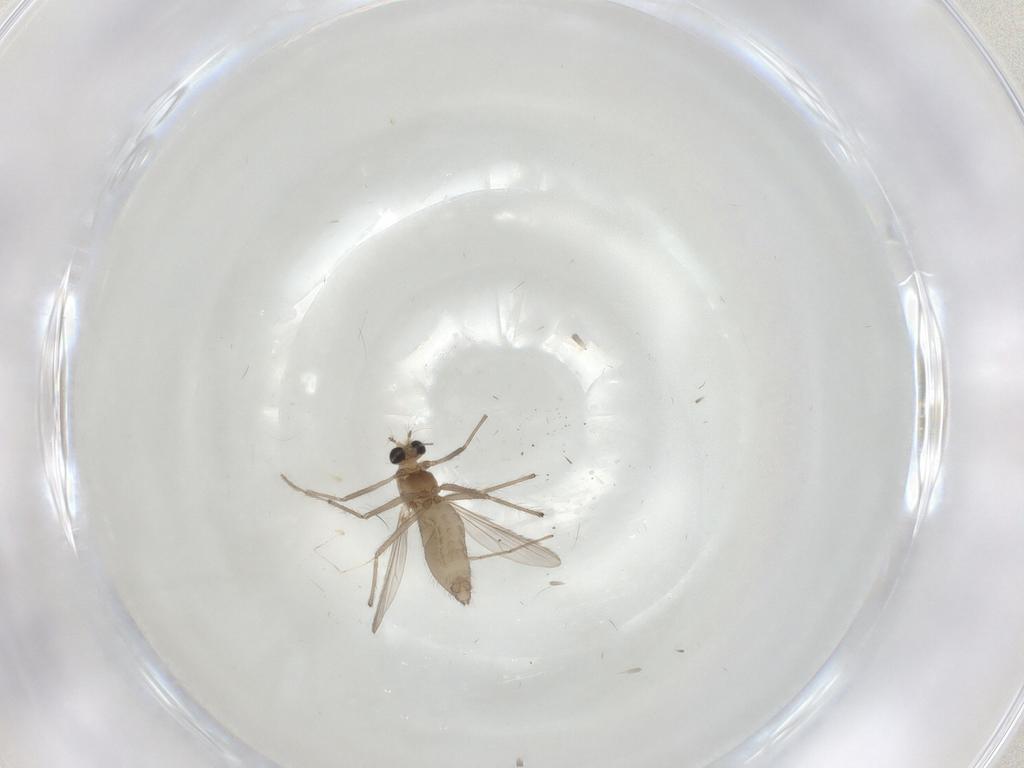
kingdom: Animalia
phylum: Arthropoda
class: Insecta
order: Diptera
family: Chironomidae
